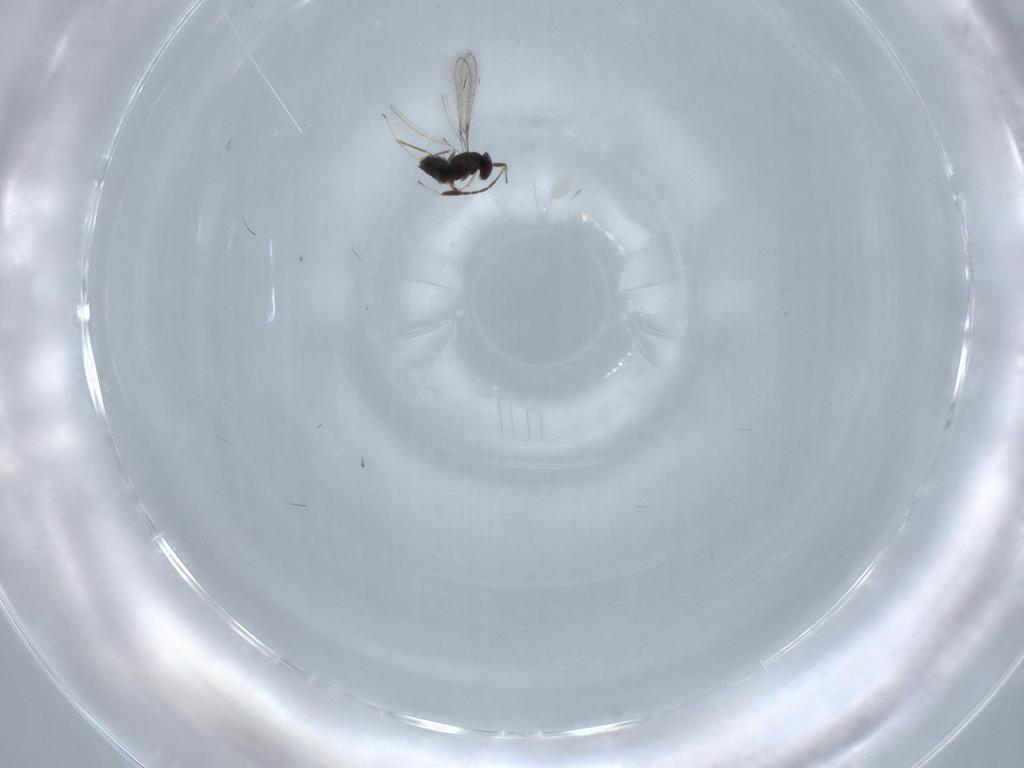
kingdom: Animalia
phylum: Arthropoda
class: Insecta
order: Hymenoptera
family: Mymaridae
